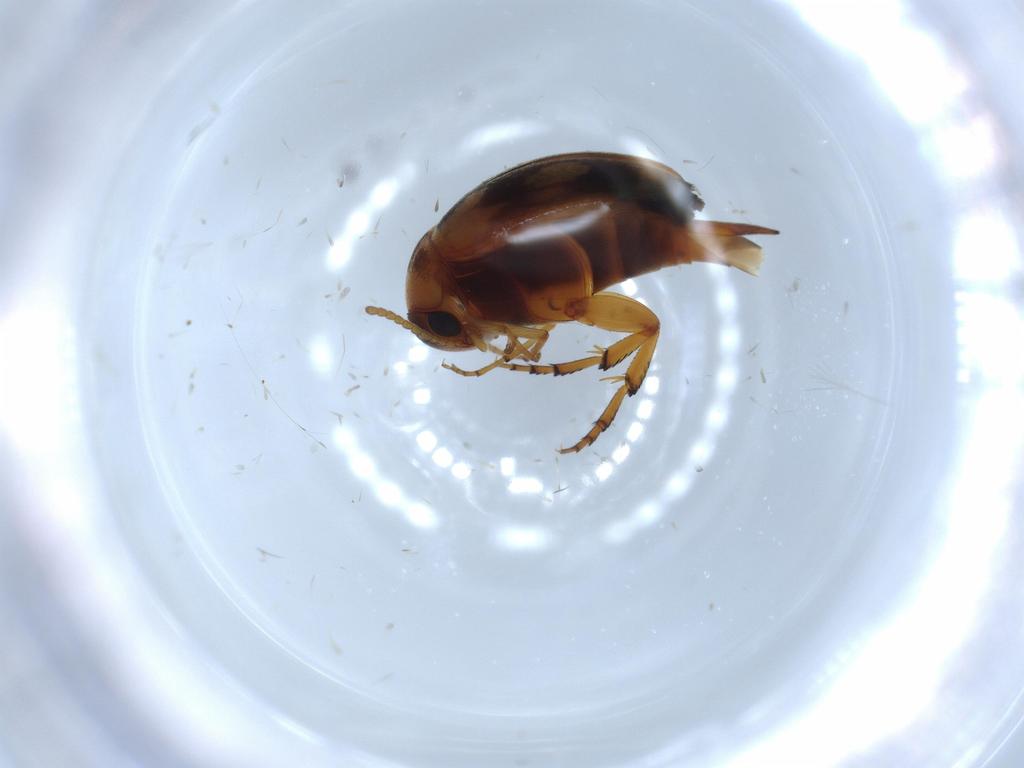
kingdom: Animalia
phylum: Arthropoda
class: Insecta
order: Coleoptera
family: Mordellidae
